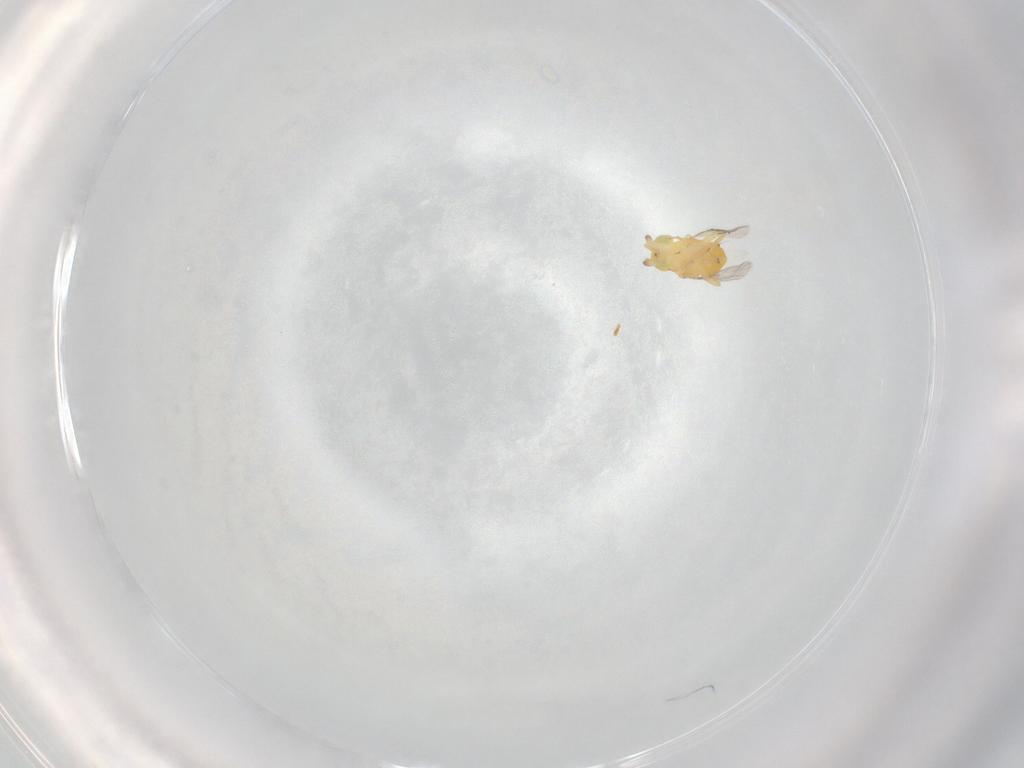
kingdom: Animalia
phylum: Arthropoda
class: Insecta
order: Hymenoptera
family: Encyrtidae
